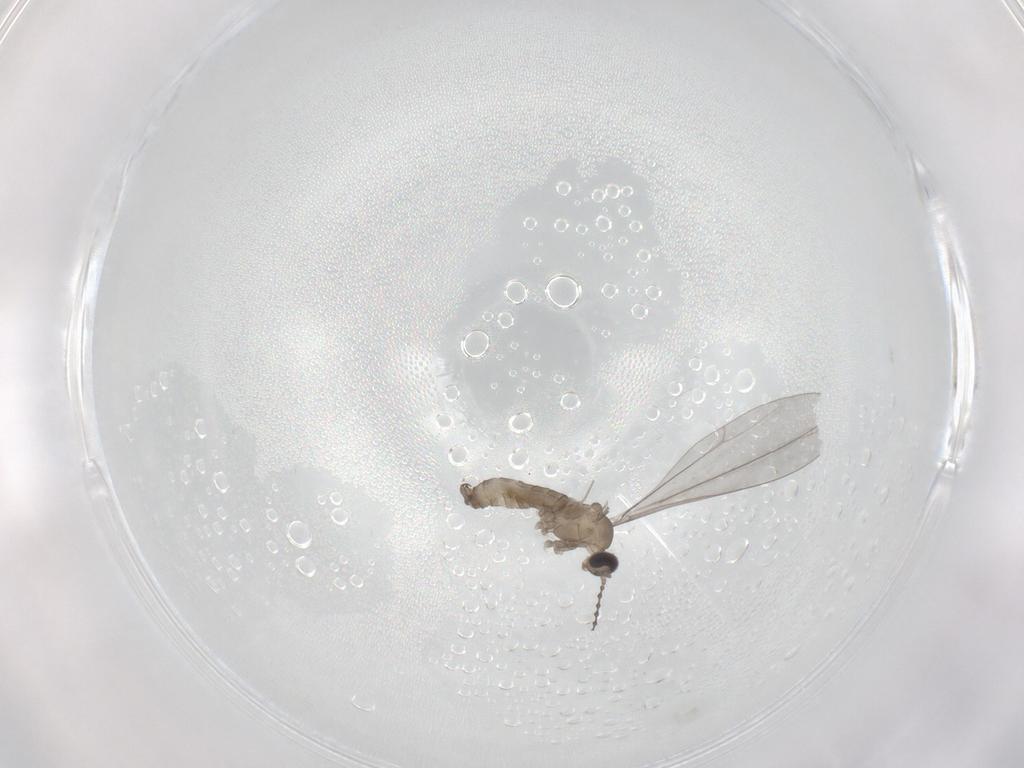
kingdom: Animalia
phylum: Arthropoda
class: Insecta
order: Diptera
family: Cecidomyiidae
